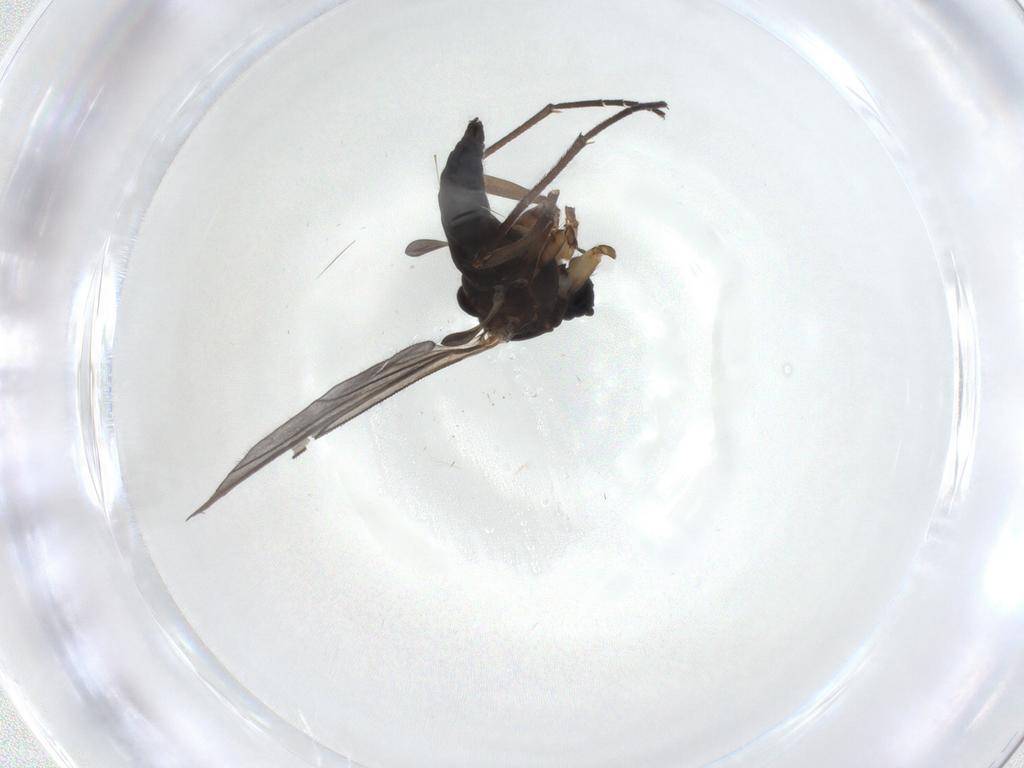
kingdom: Animalia
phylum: Arthropoda
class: Insecta
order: Diptera
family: Sciaridae
